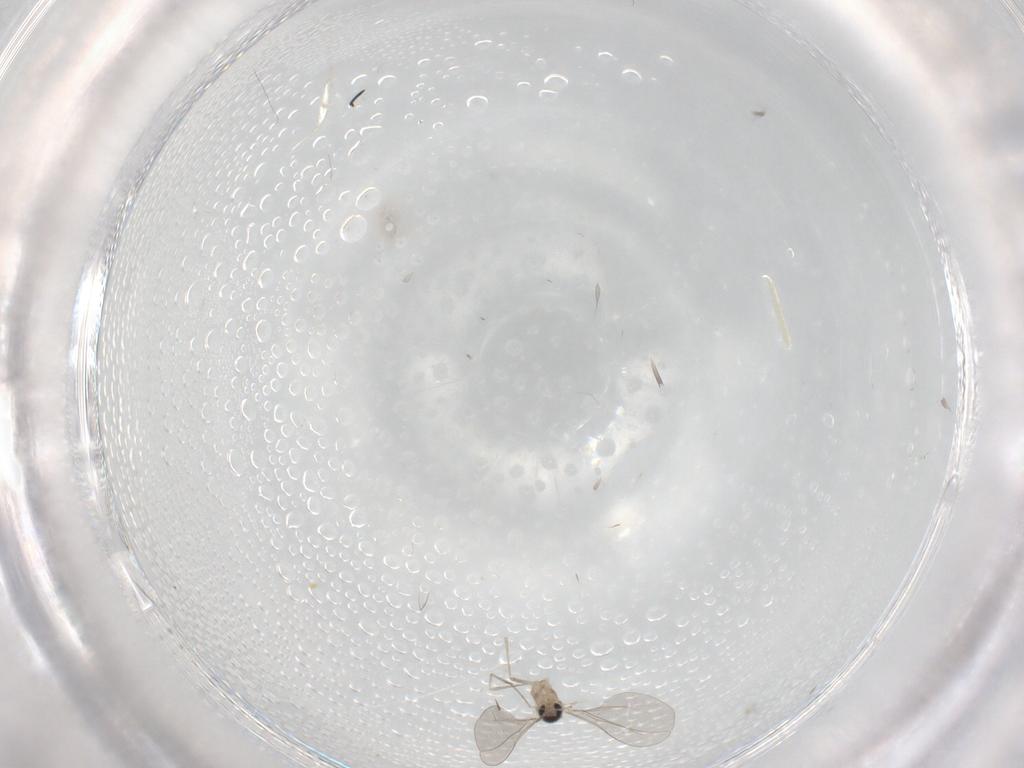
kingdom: Animalia
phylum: Arthropoda
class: Insecta
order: Diptera
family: Cecidomyiidae
